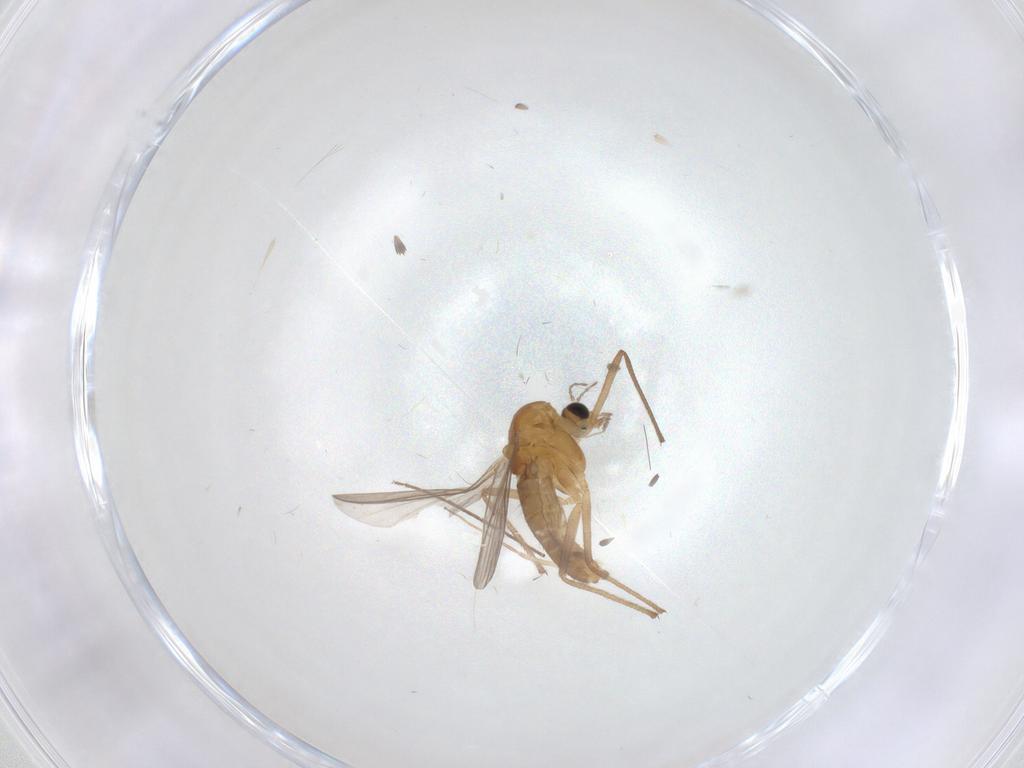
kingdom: Animalia
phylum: Arthropoda
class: Insecta
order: Diptera
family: Chironomidae
